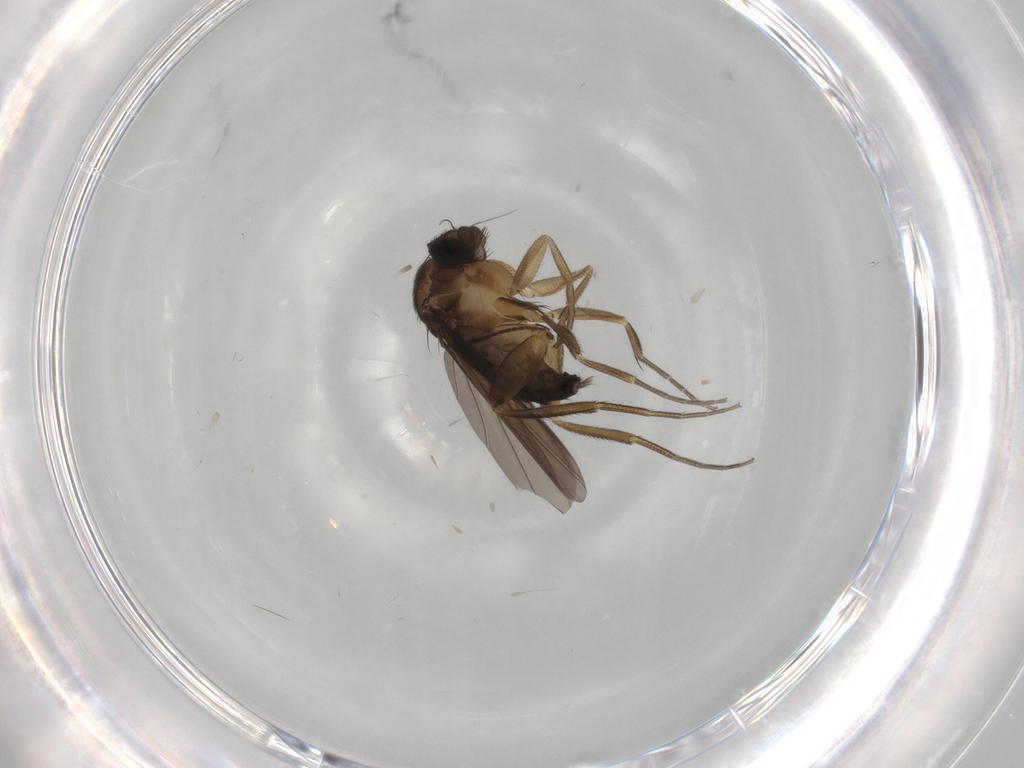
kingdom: Animalia
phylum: Arthropoda
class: Insecta
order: Diptera
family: Phoridae
